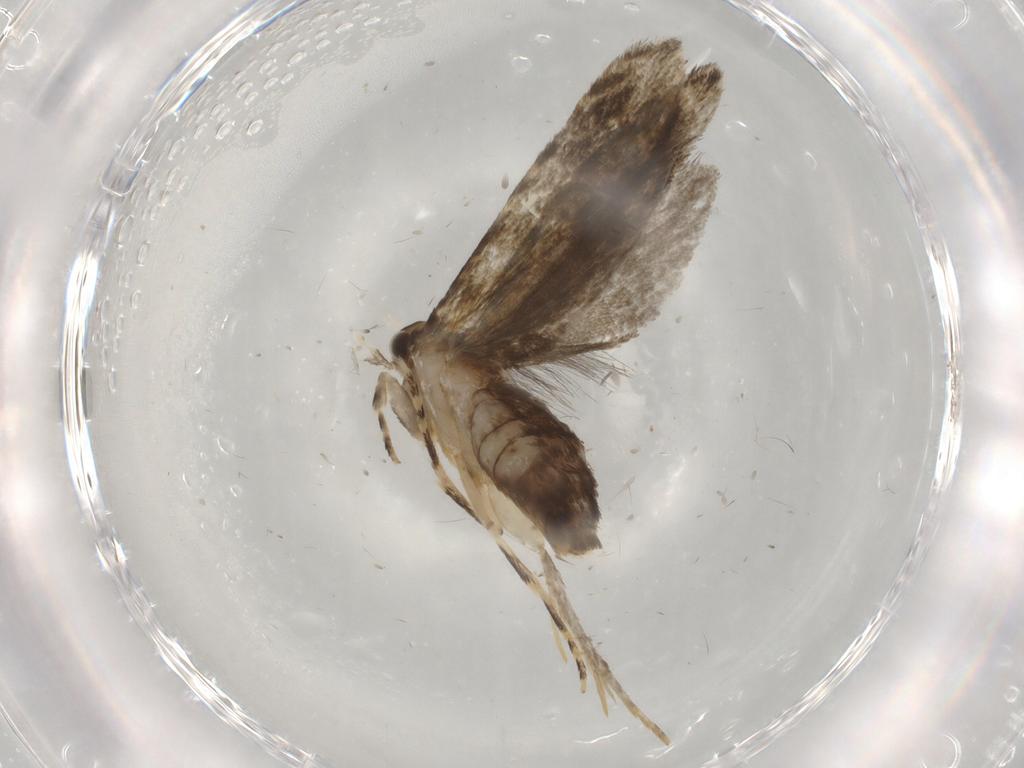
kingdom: Animalia
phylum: Arthropoda
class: Insecta
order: Lepidoptera
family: Tineidae
